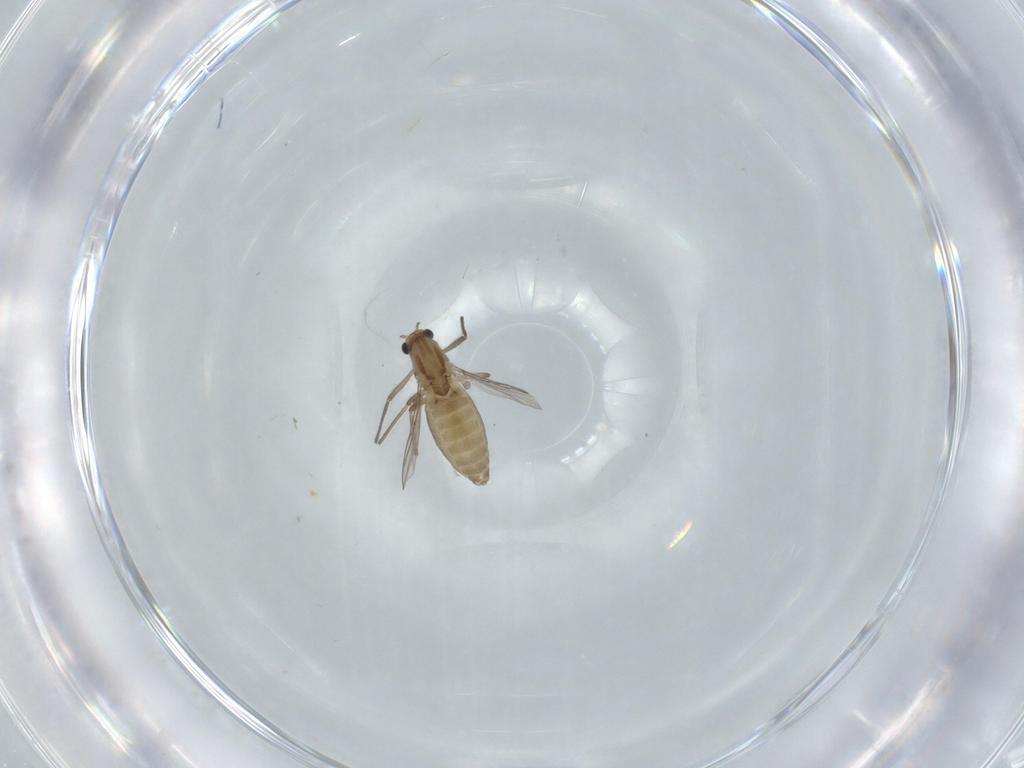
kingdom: Animalia
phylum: Arthropoda
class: Insecta
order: Diptera
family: Chironomidae
